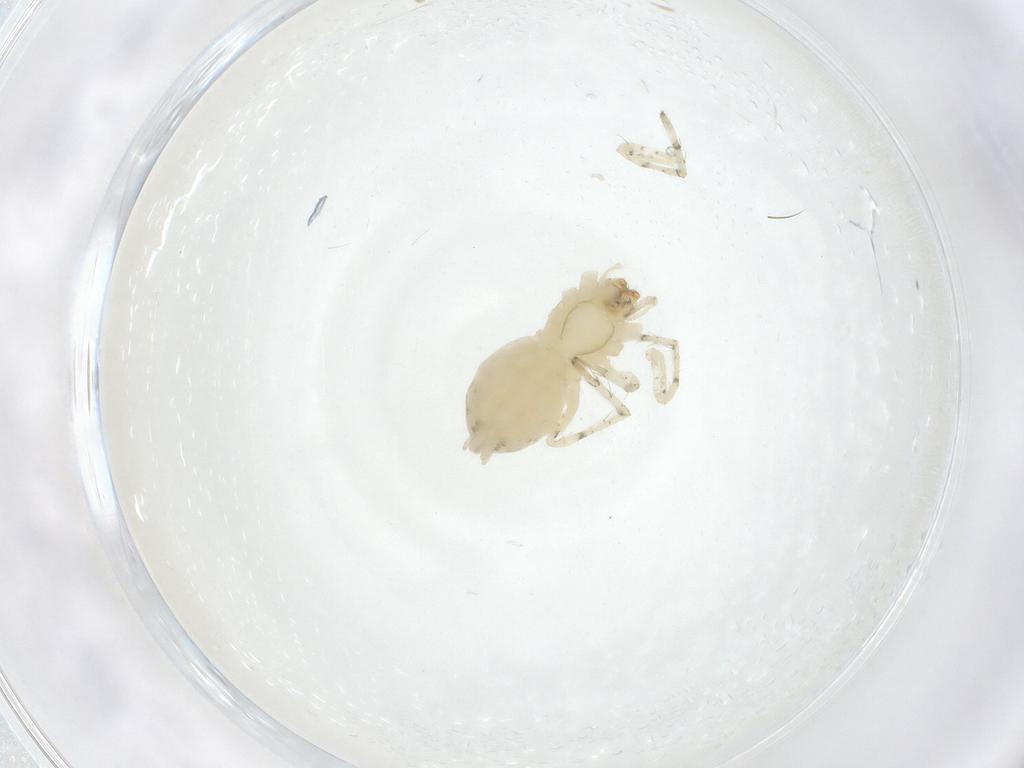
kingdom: Animalia
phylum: Arthropoda
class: Arachnida
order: Araneae
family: Anyphaenidae
